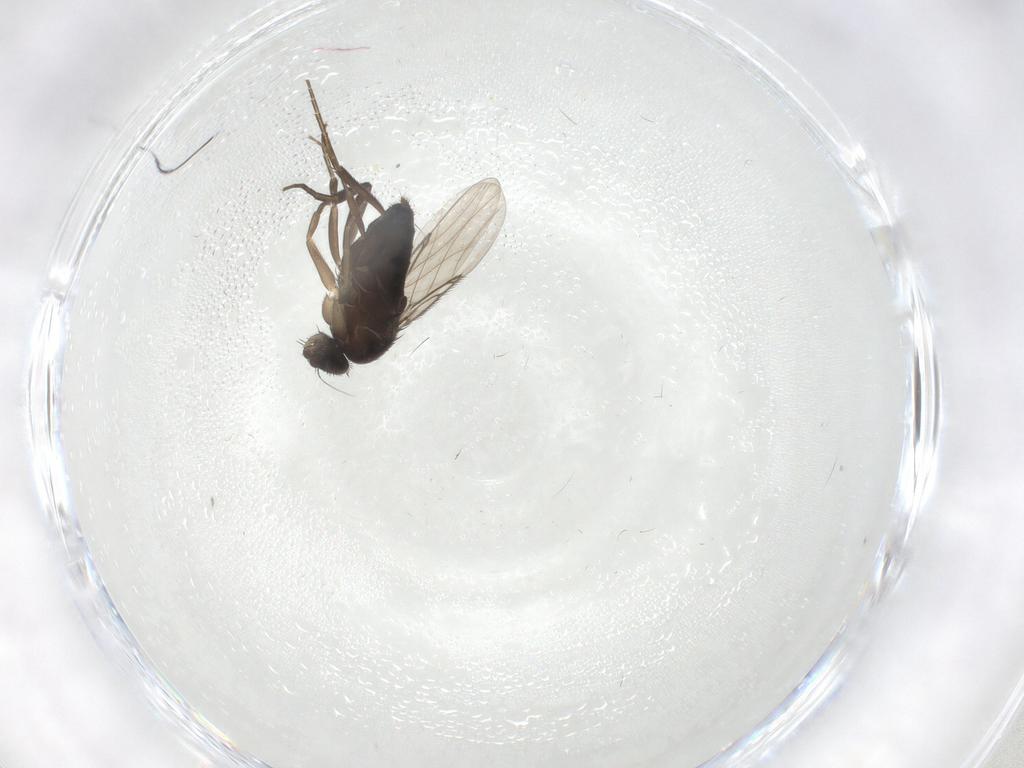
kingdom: Animalia
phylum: Arthropoda
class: Insecta
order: Diptera
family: Phoridae
